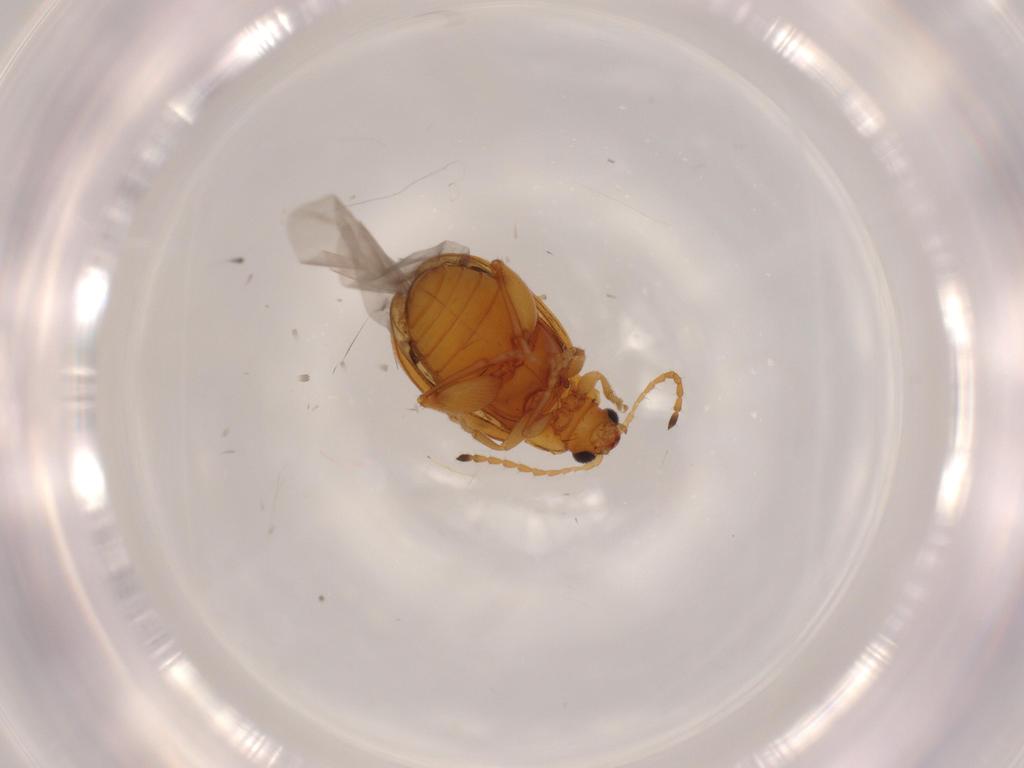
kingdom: Animalia
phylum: Arthropoda
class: Insecta
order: Coleoptera
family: Chrysomelidae
